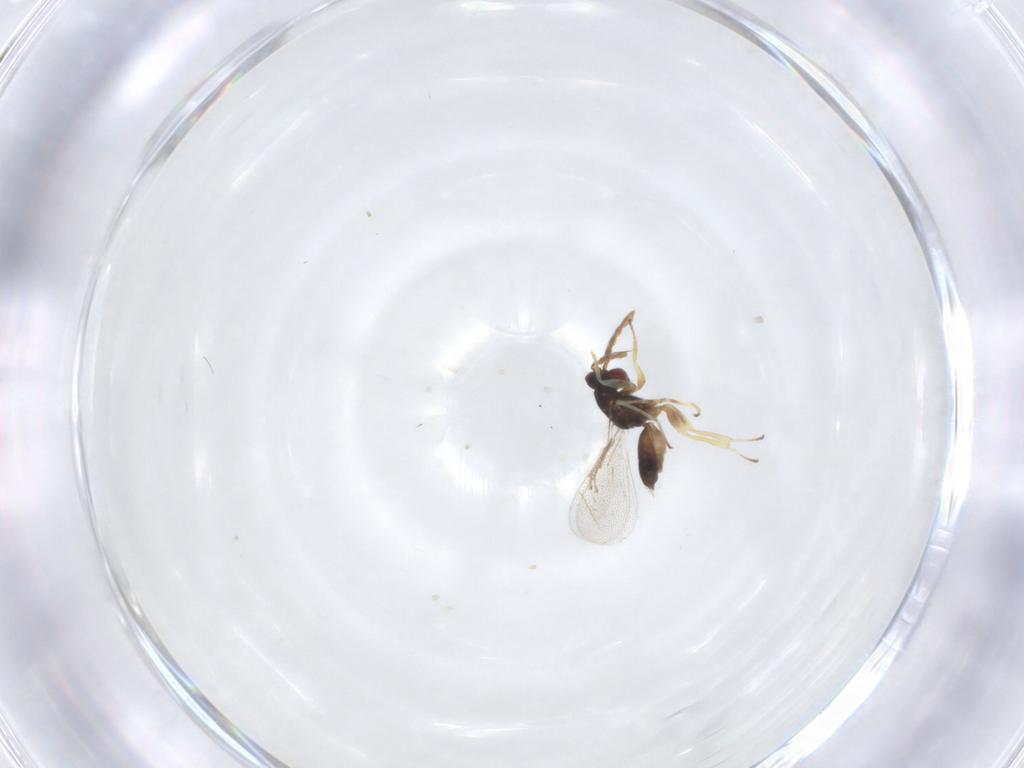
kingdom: Animalia
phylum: Arthropoda
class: Insecta
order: Hymenoptera
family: Eulophidae
